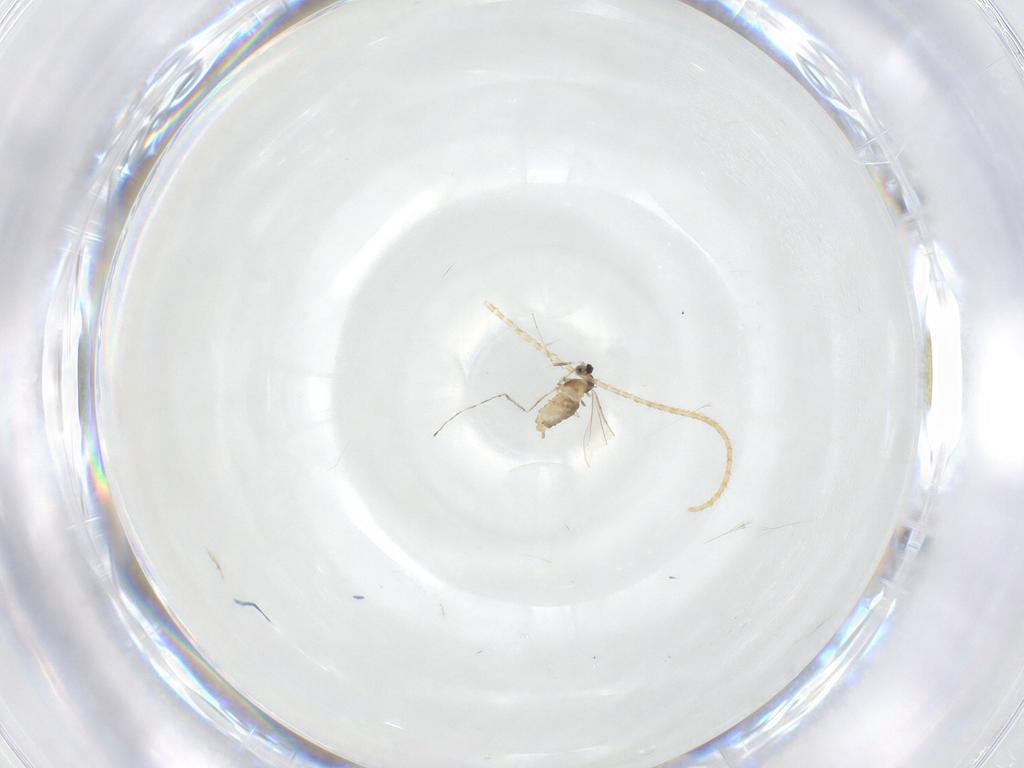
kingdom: Animalia
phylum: Arthropoda
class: Insecta
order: Diptera
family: Cecidomyiidae
